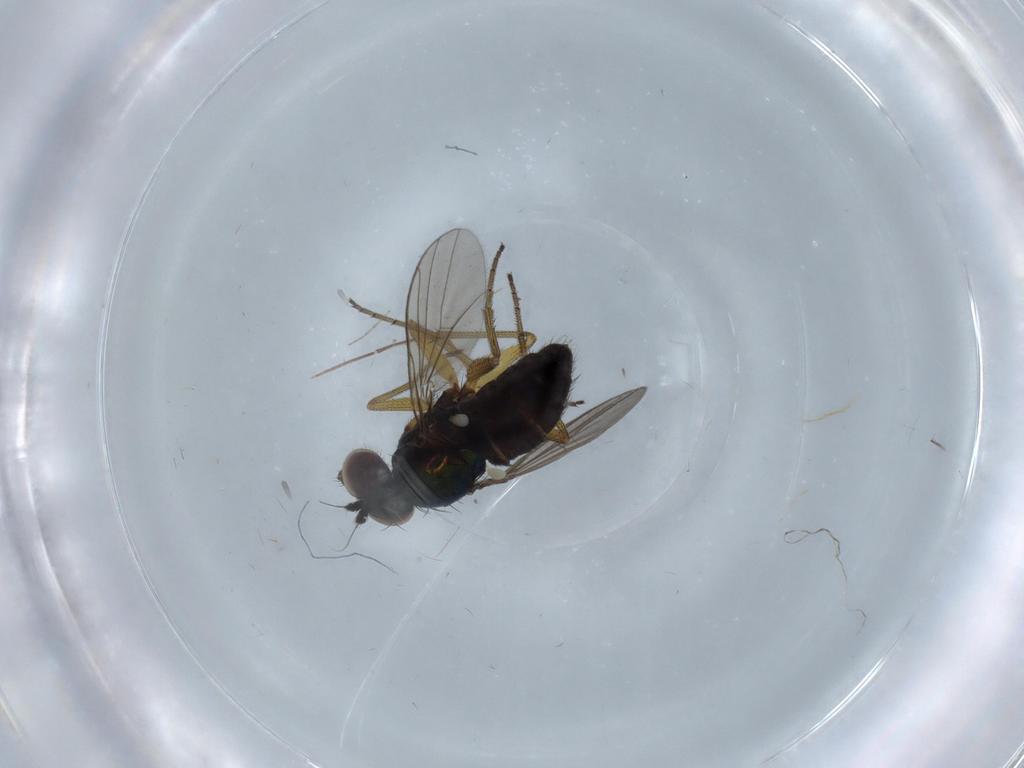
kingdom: Animalia
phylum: Arthropoda
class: Insecta
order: Diptera
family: Dolichopodidae
